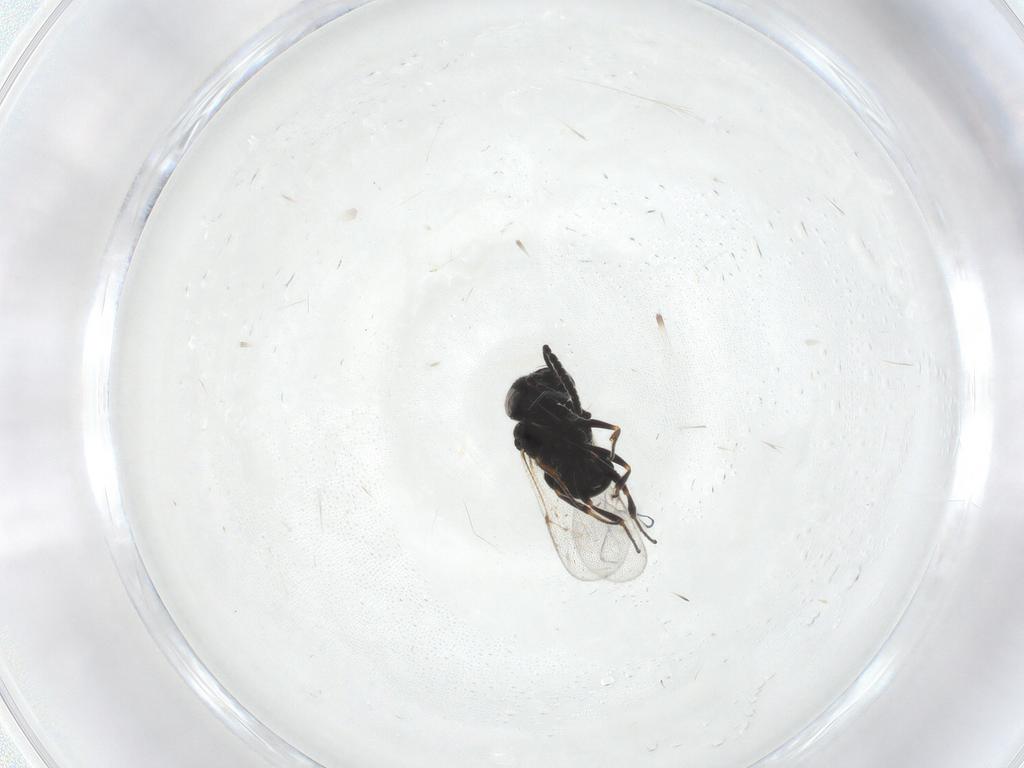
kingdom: Animalia
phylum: Arthropoda
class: Insecta
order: Hymenoptera
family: Scelionidae
